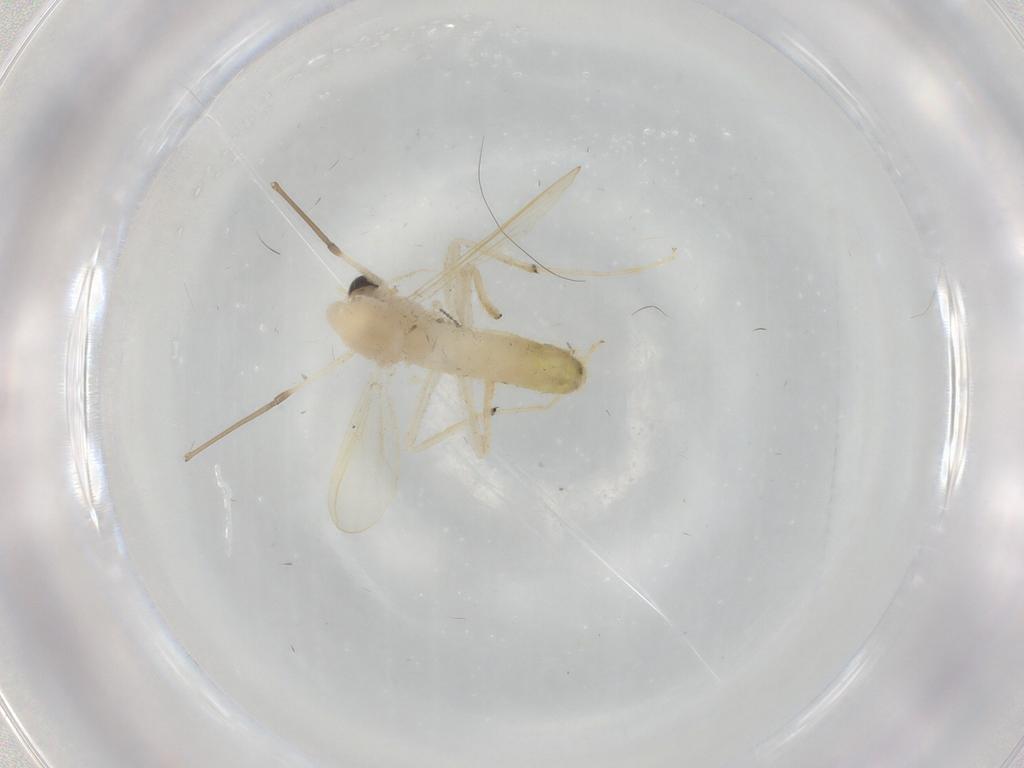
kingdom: Animalia
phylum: Arthropoda
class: Insecta
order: Diptera
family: Chironomidae
